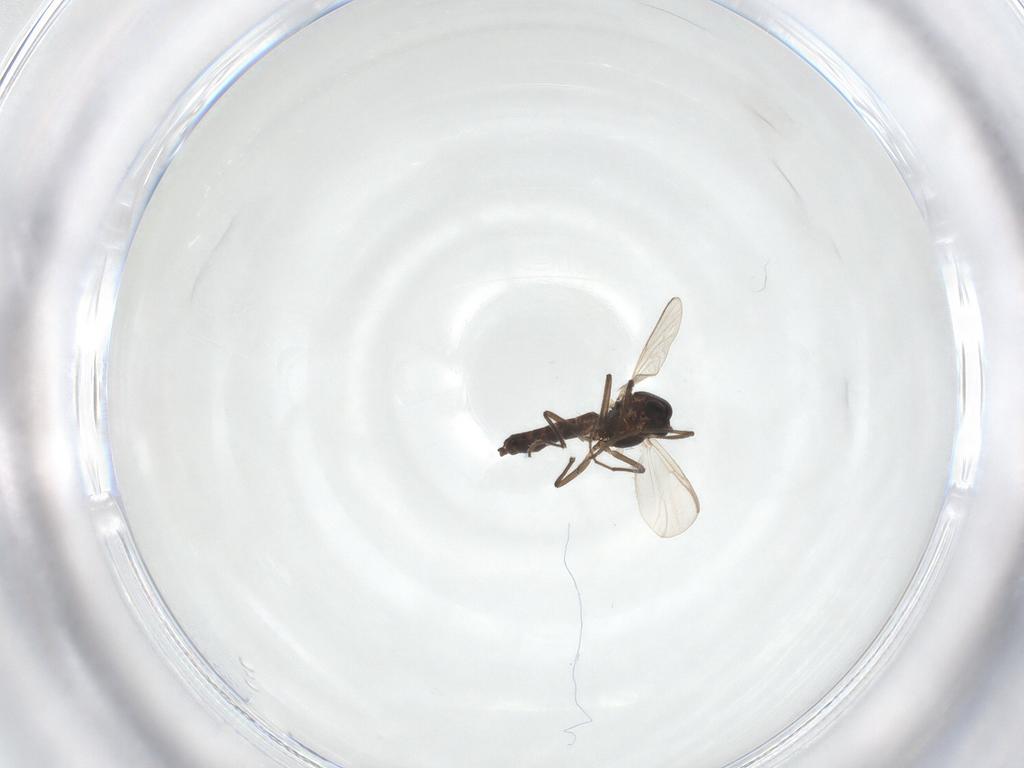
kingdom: Animalia
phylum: Arthropoda
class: Insecta
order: Diptera
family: Chironomidae
